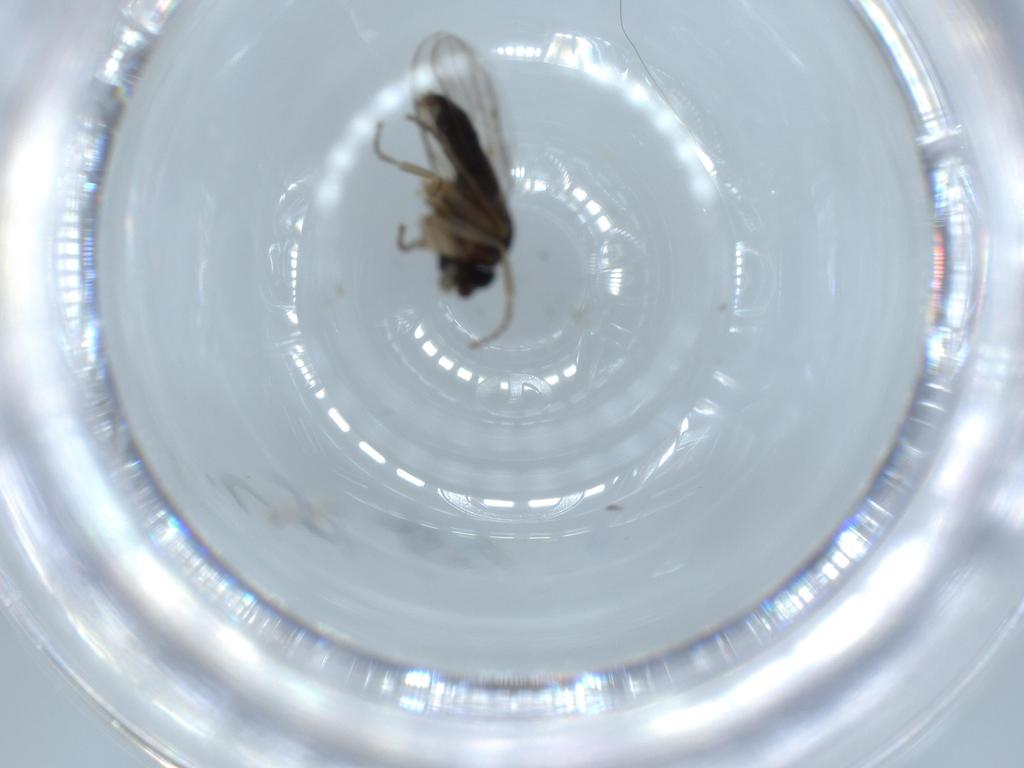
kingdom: Animalia
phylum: Arthropoda
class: Insecta
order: Diptera
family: Phoridae
